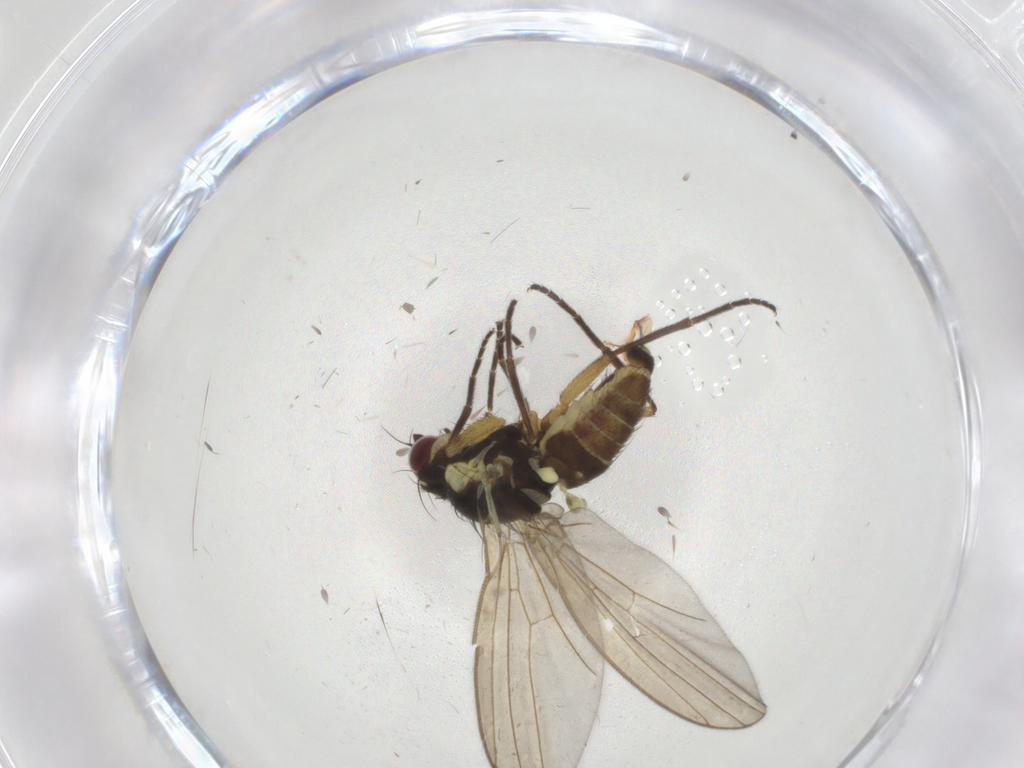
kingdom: Animalia
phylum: Arthropoda
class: Insecta
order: Diptera
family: Agromyzidae
